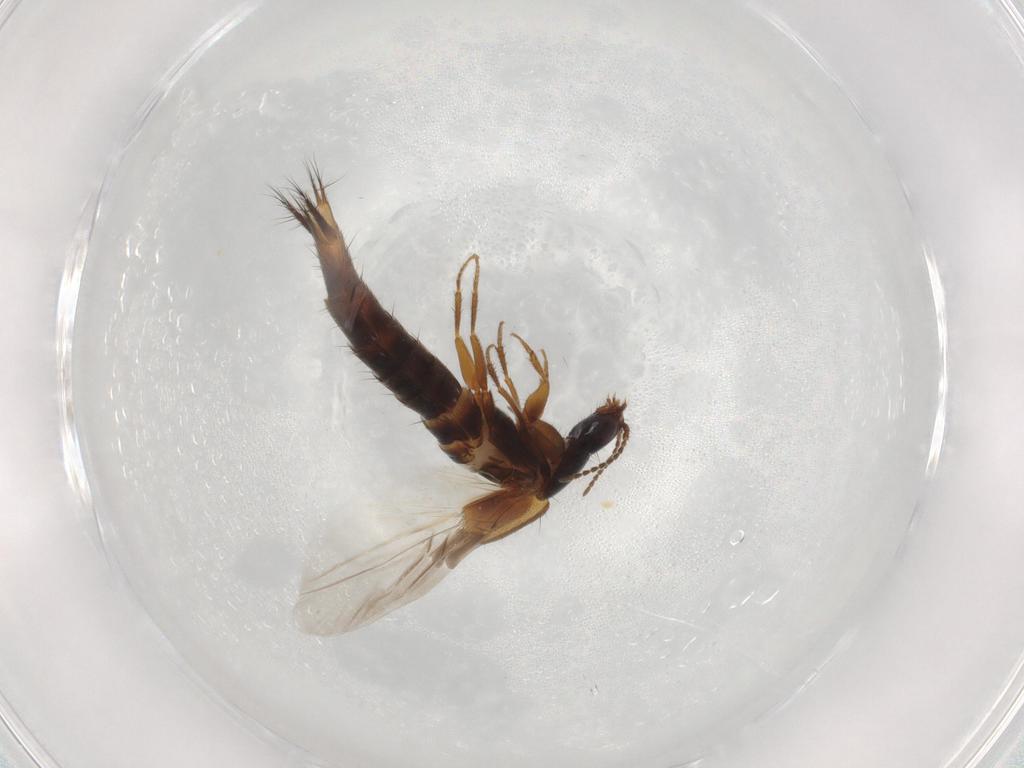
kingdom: Animalia
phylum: Arthropoda
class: Insecta
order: Coleoptera
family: Staphylinidae
